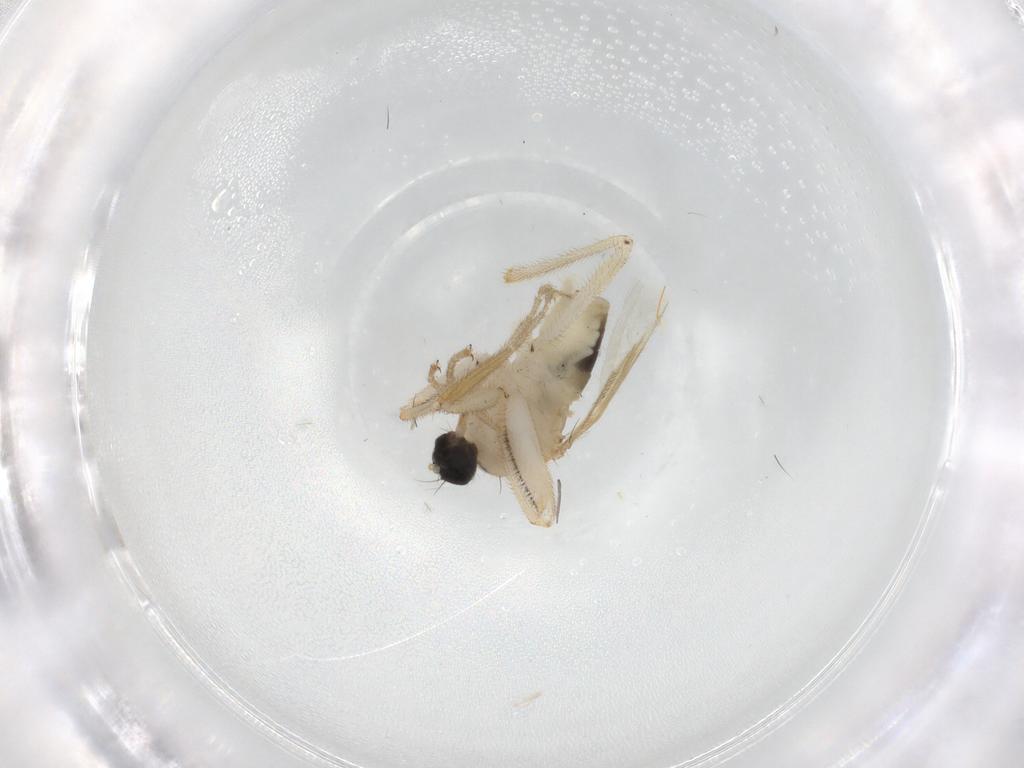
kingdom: Animalia
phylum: Arthropoda
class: Insecta
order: Diptera
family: Hybotidae
